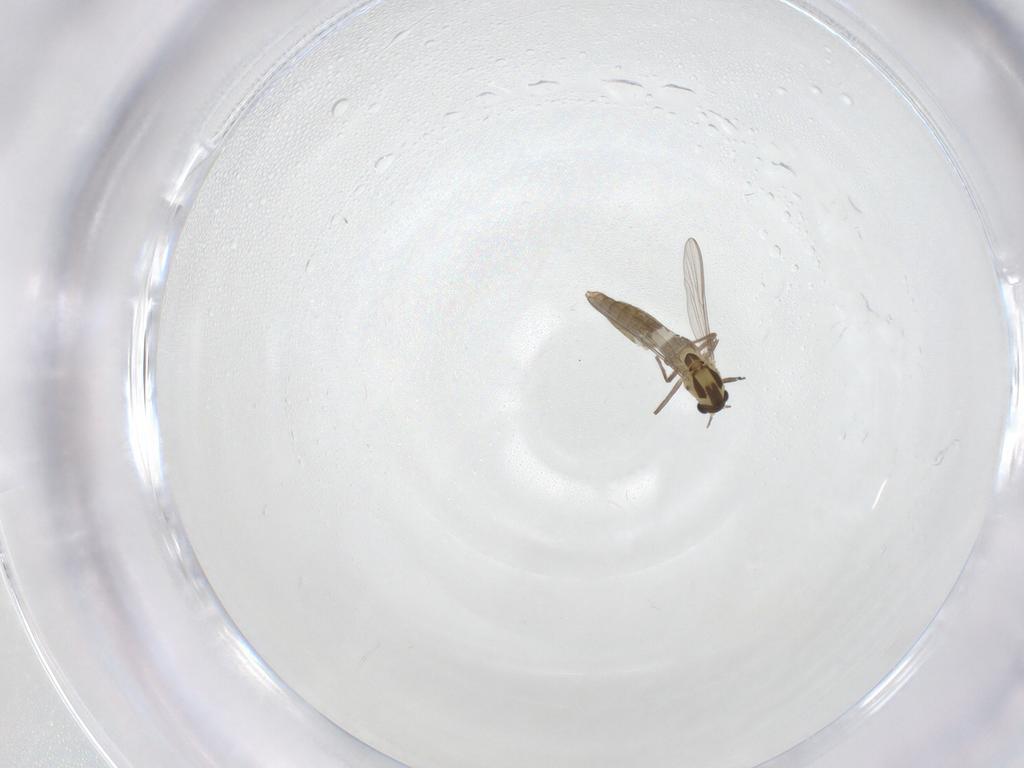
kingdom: Animalia
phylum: Arthropoda
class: Insecta
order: Diptera
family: Chironomidae
